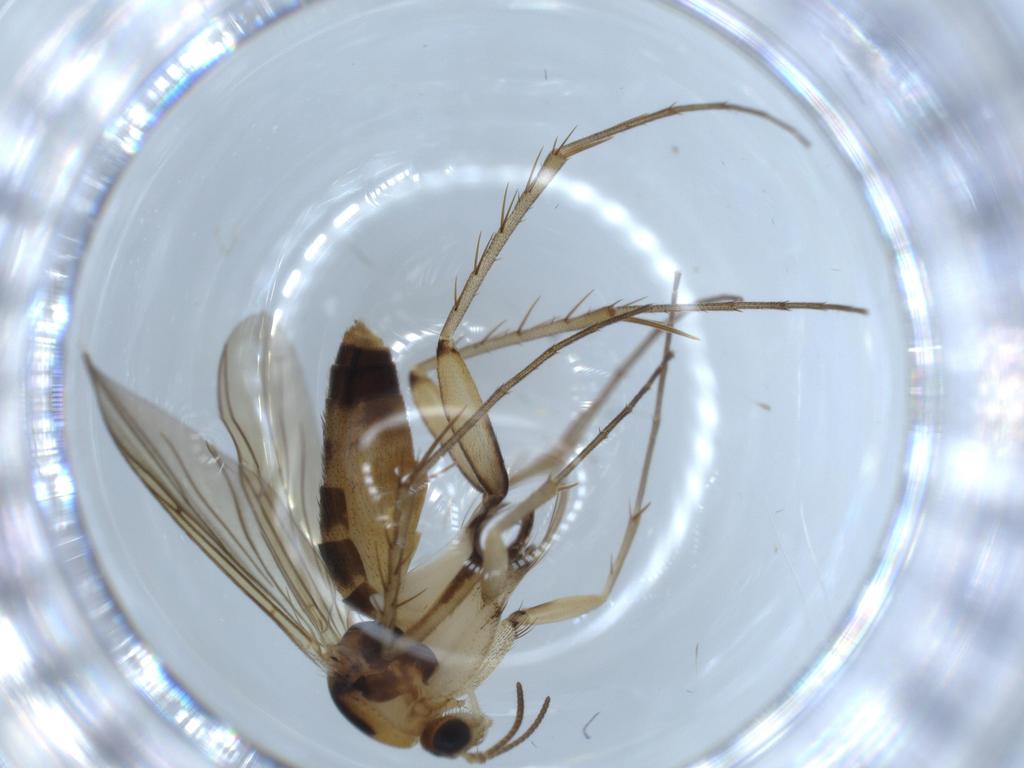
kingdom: Animalia
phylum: Arthropoda
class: Insecta
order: Diptera
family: Mycetophilidae
